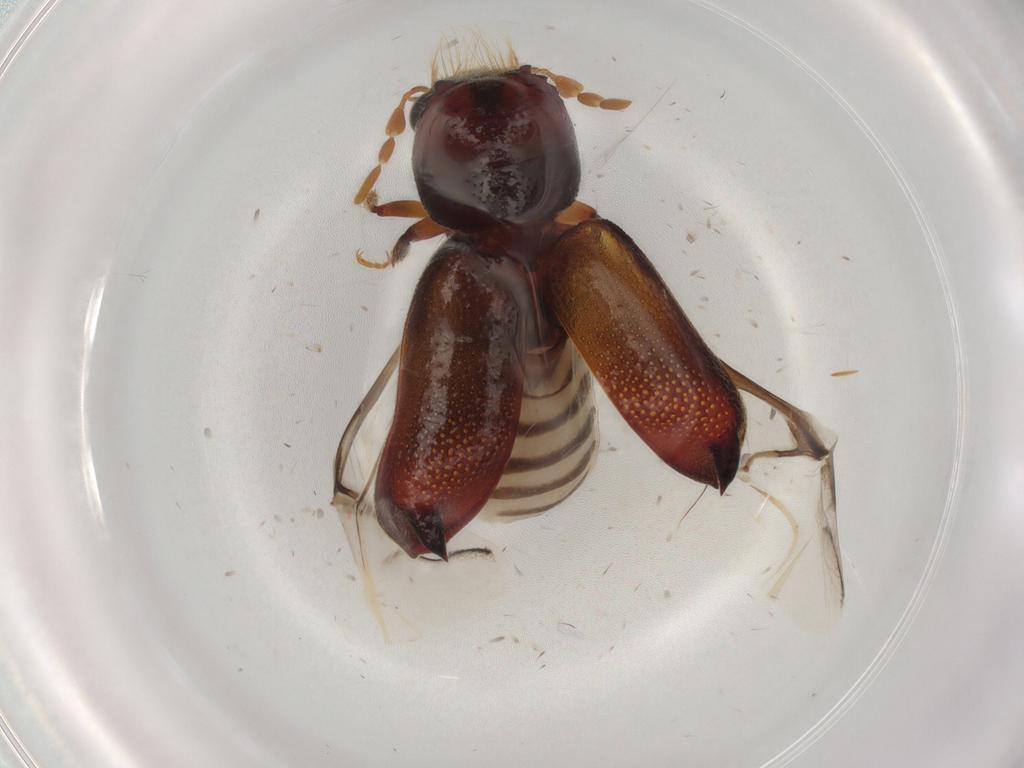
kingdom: Animalia
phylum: Arthropoda
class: Insecta
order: Coleoptera
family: Bostrichidae
